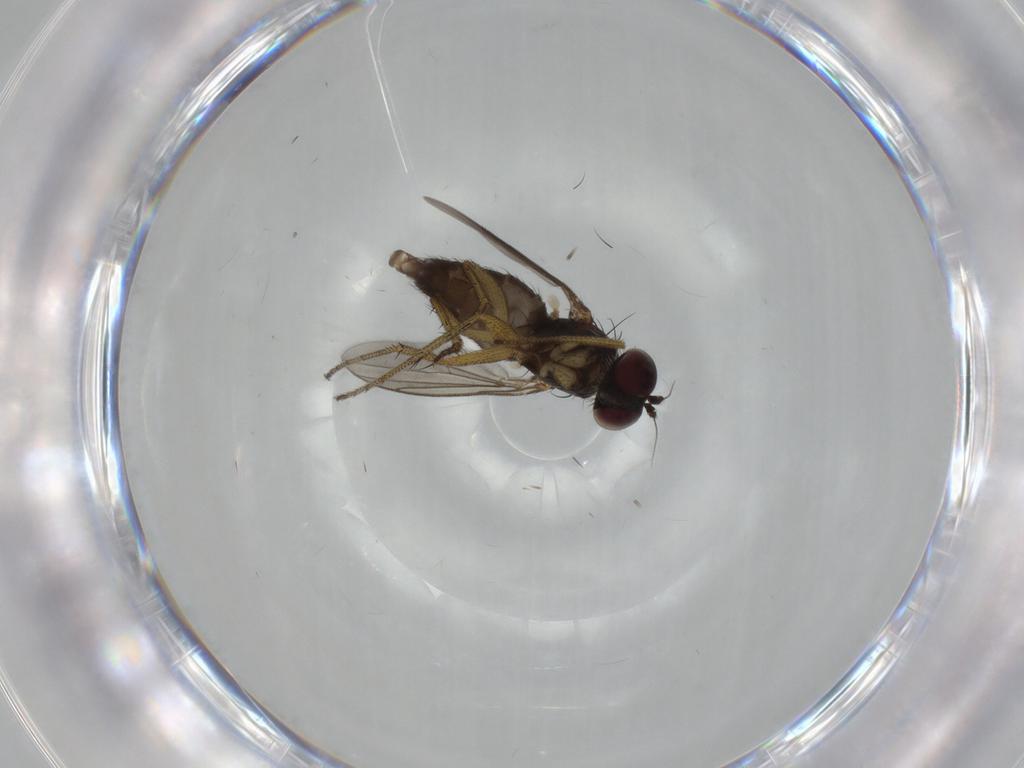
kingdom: Animalia
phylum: Arthropoda
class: Insecta
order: Diptera
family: Dolichopodidae
